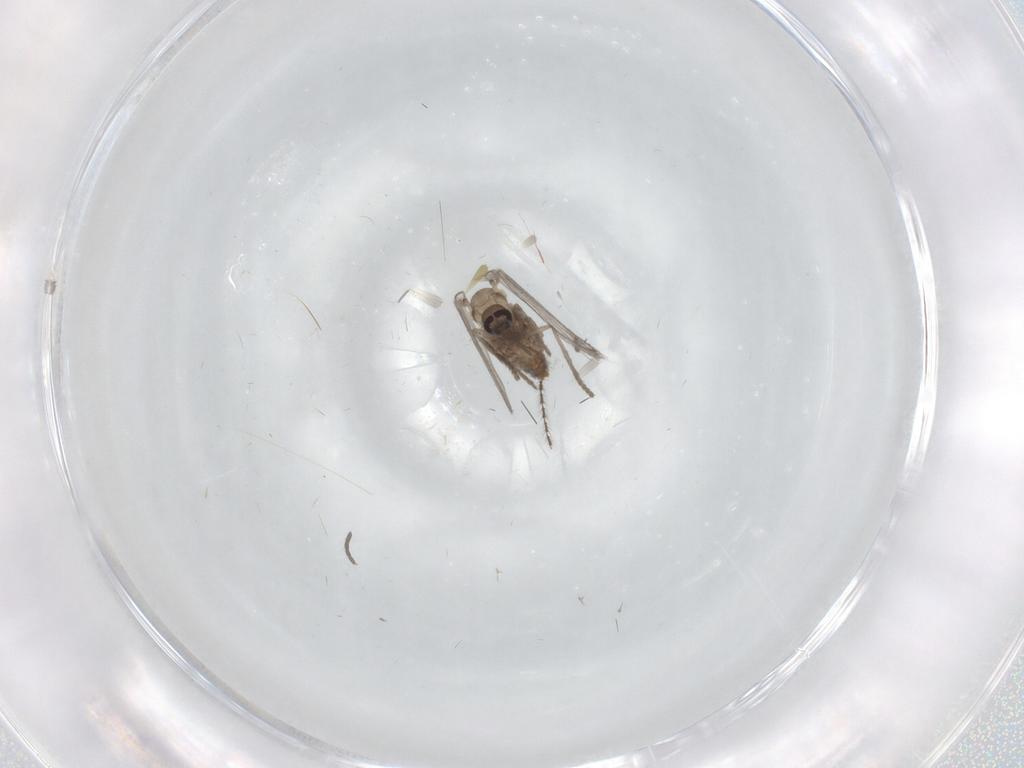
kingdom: Animalia
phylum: Arthropoda
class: Insecta
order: Diptera
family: Psychodidae
